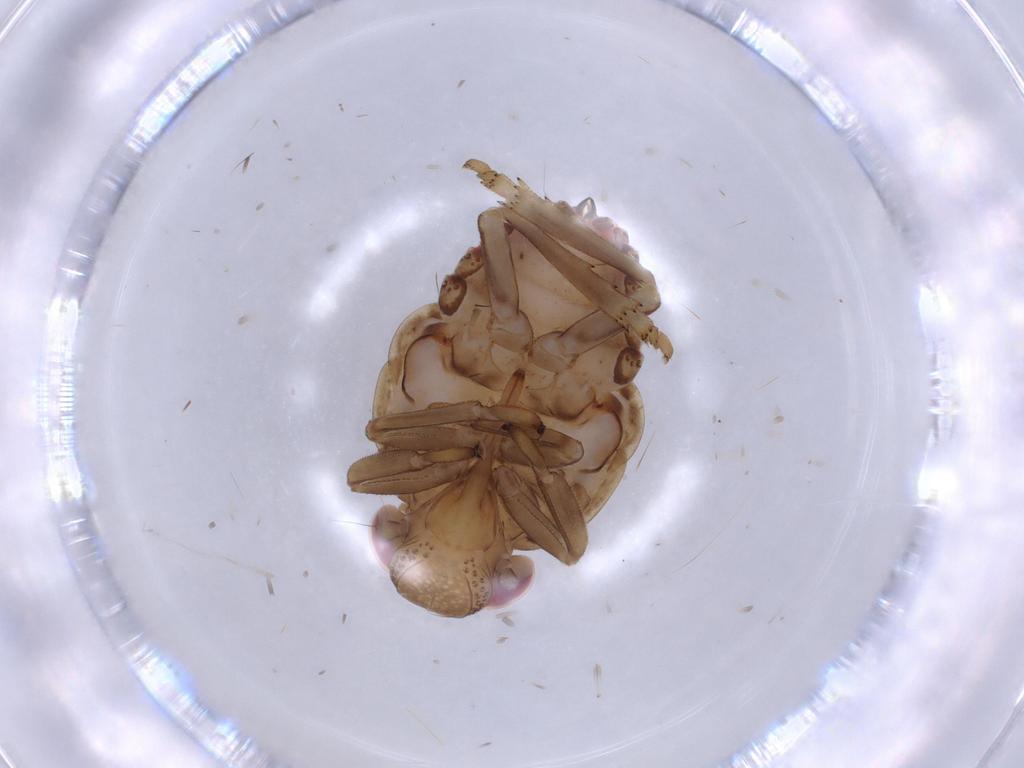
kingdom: Animalia
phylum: Arthropoda
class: Insecta
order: Hemiptera
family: Issidae
